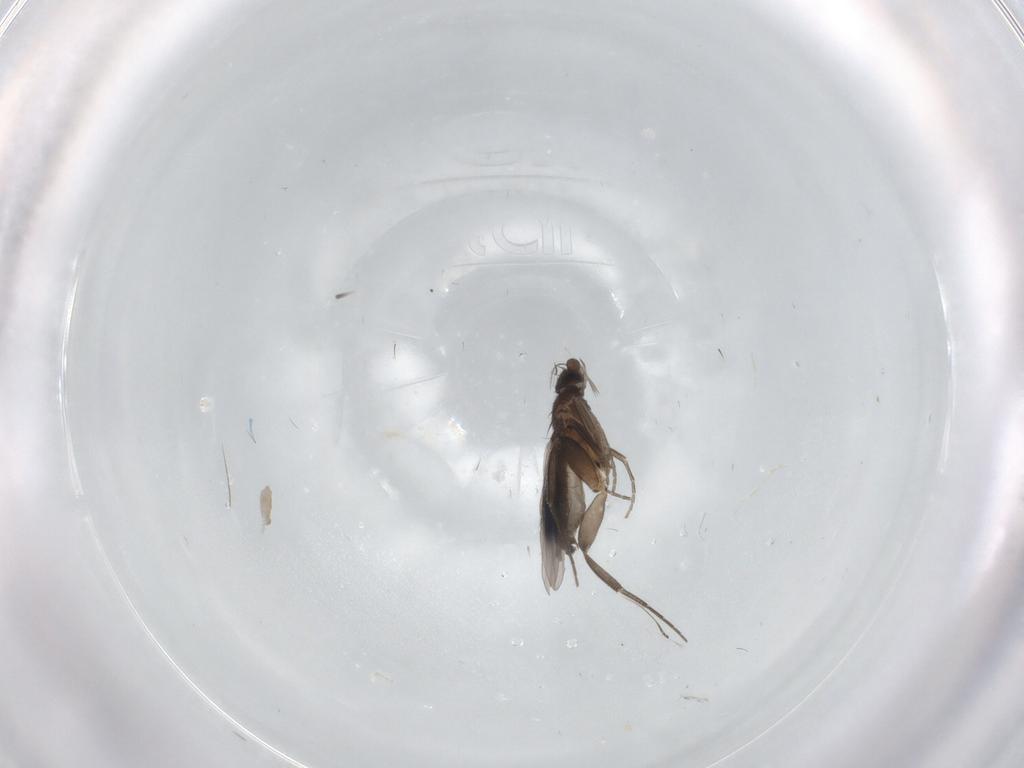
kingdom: Animalia
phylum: Arthropoda
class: Insecta
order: Diptera
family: Phoridae
